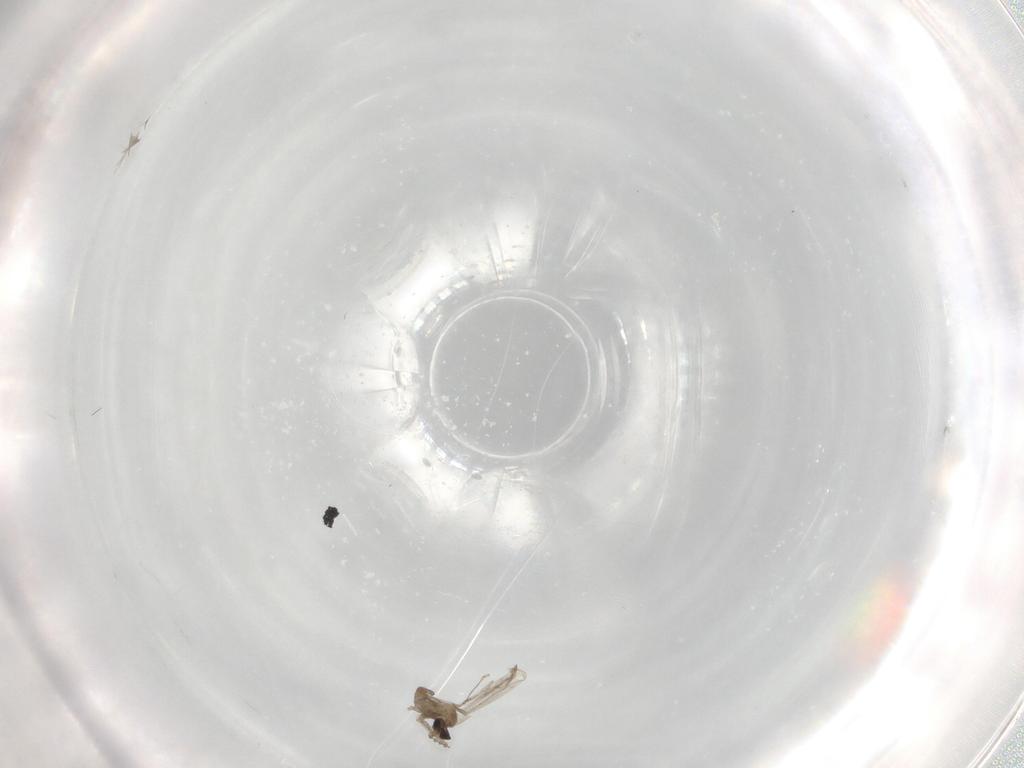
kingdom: Animalia
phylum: Arthropoda
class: Insecta
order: Diptera
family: Cecidomyiidae
